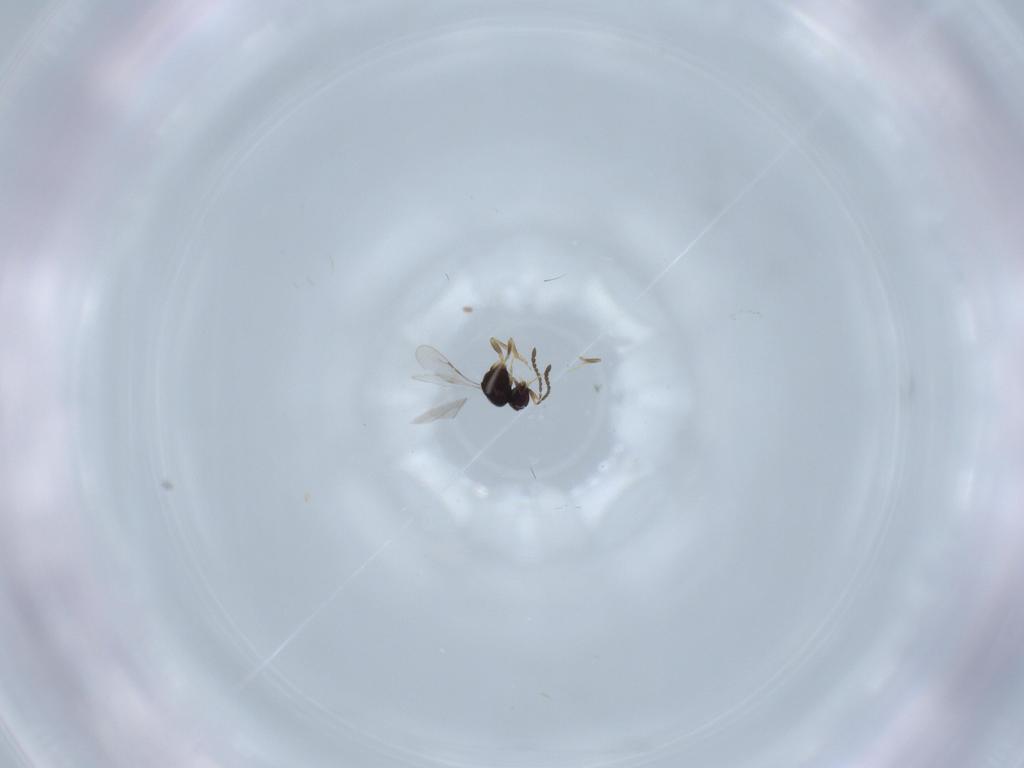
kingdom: Animalia
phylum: Arthropoda
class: Insecta
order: Hymenoptera
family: Ceraphronidae
